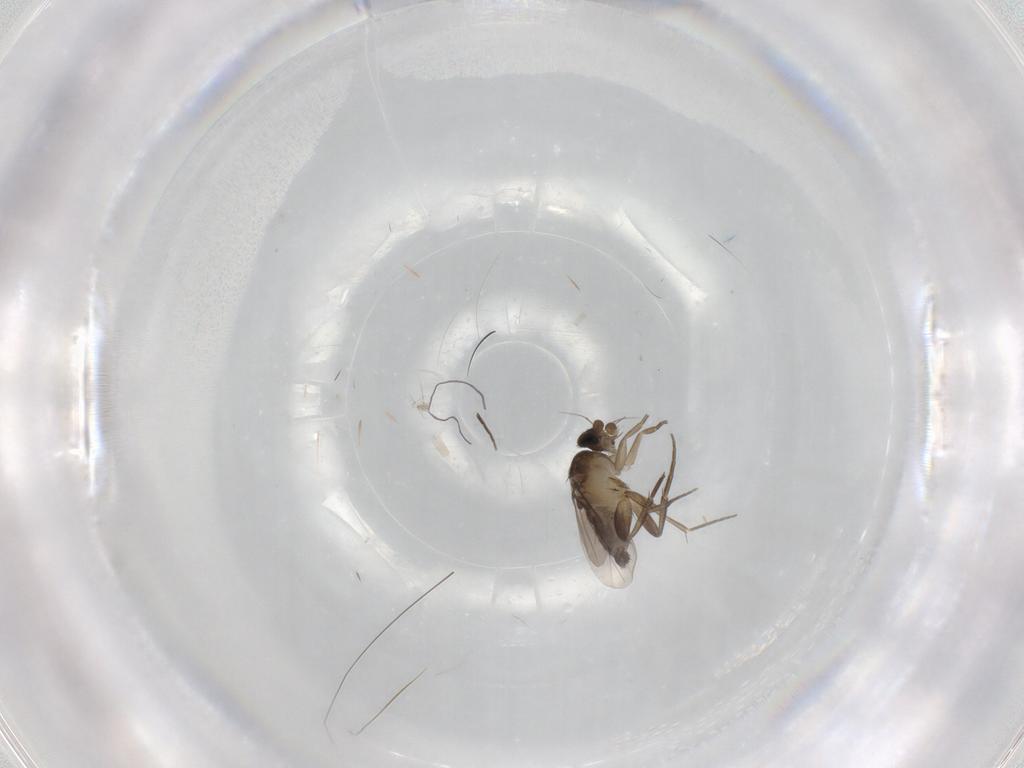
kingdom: Animalia
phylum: Arthropoda
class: Insecta
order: Diptera
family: Phoridae
